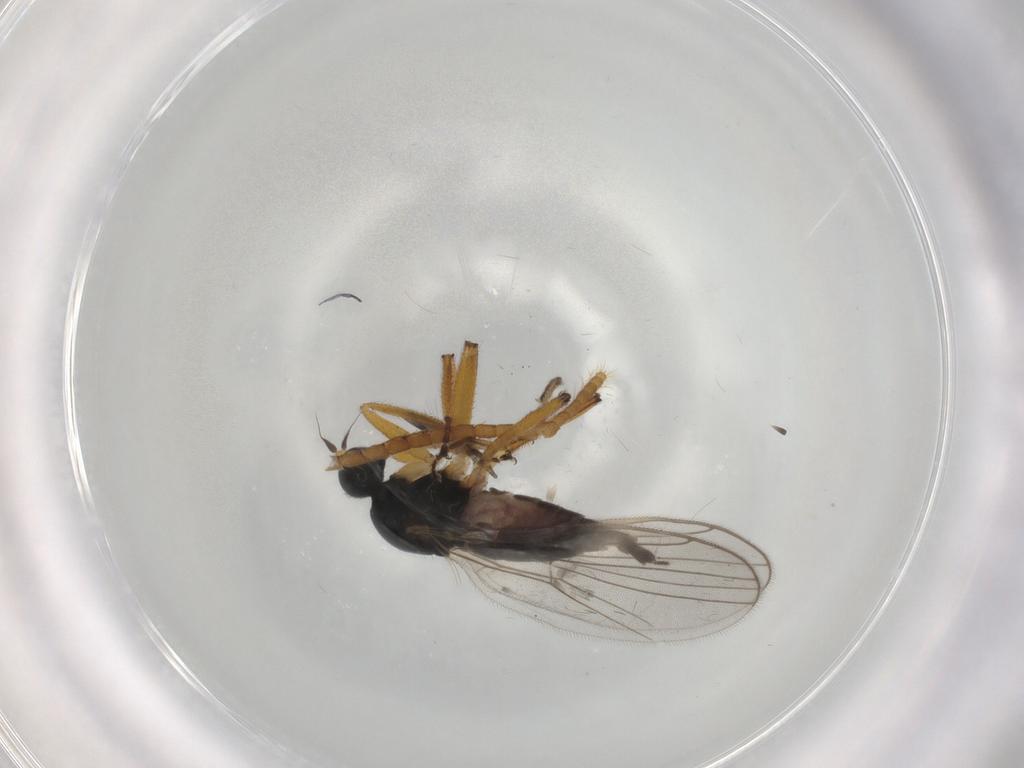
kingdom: Animalia
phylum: Arthropoda
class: Insecta
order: Diptera
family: Hybotidae
